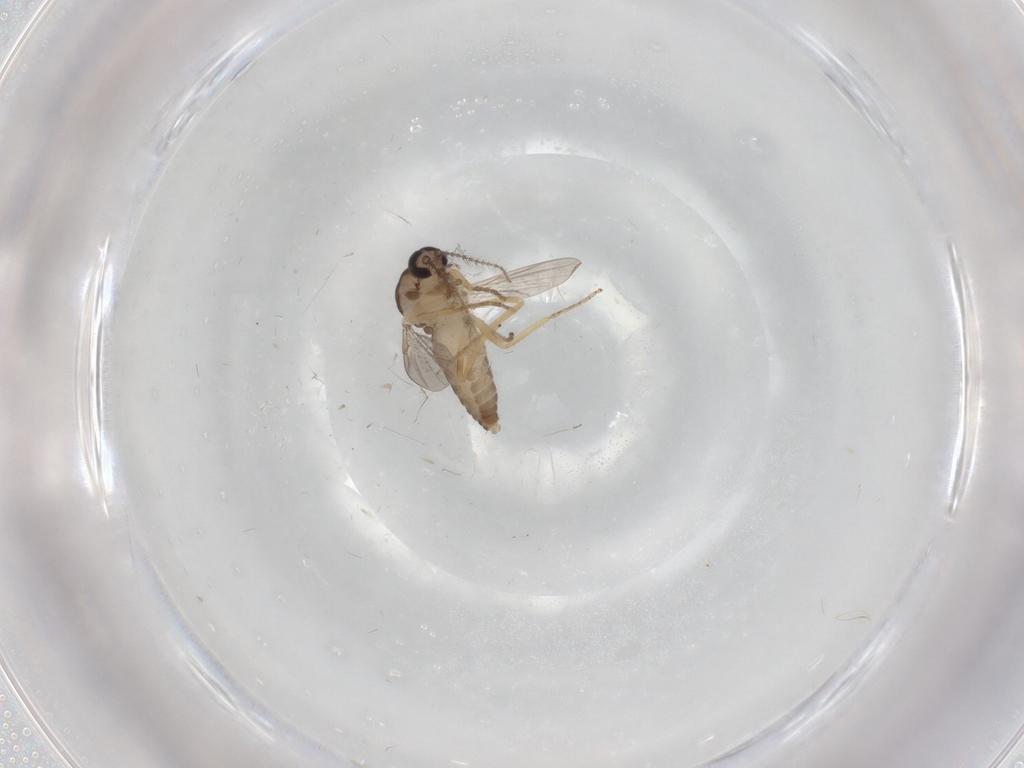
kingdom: Animalia
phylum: Arthropoda
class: Insecta
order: Diptera
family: Ceratopogonidae
